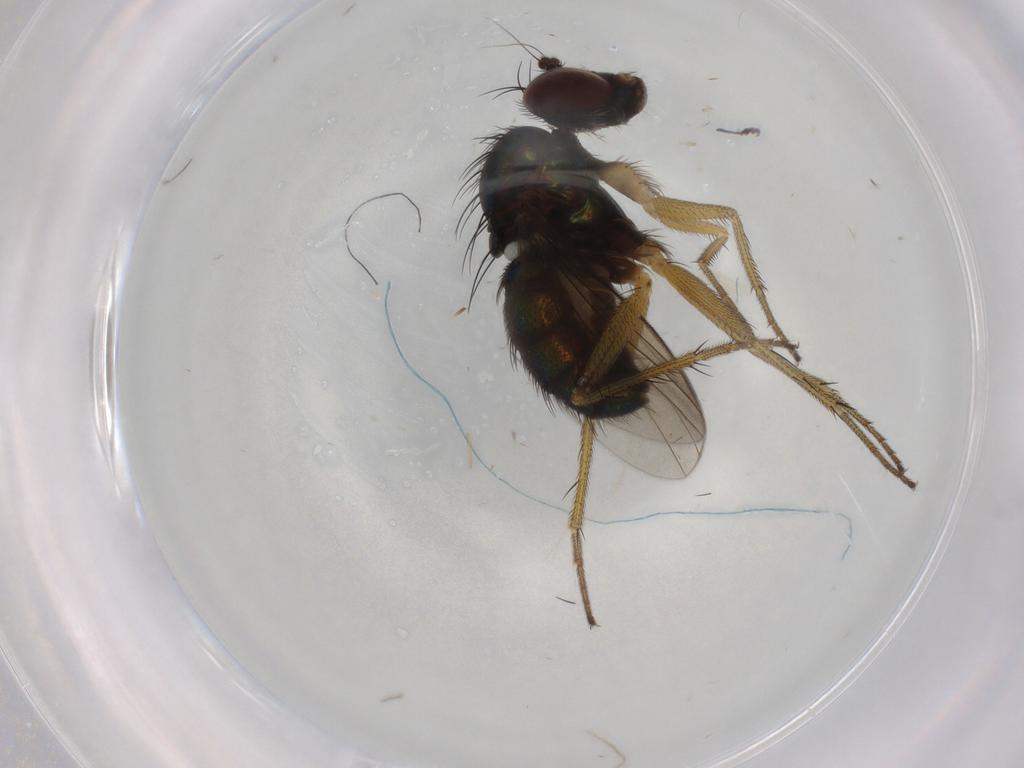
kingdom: Animalia
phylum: Arthropoda
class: Insecta
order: Diptera
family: Dolichopodidae
